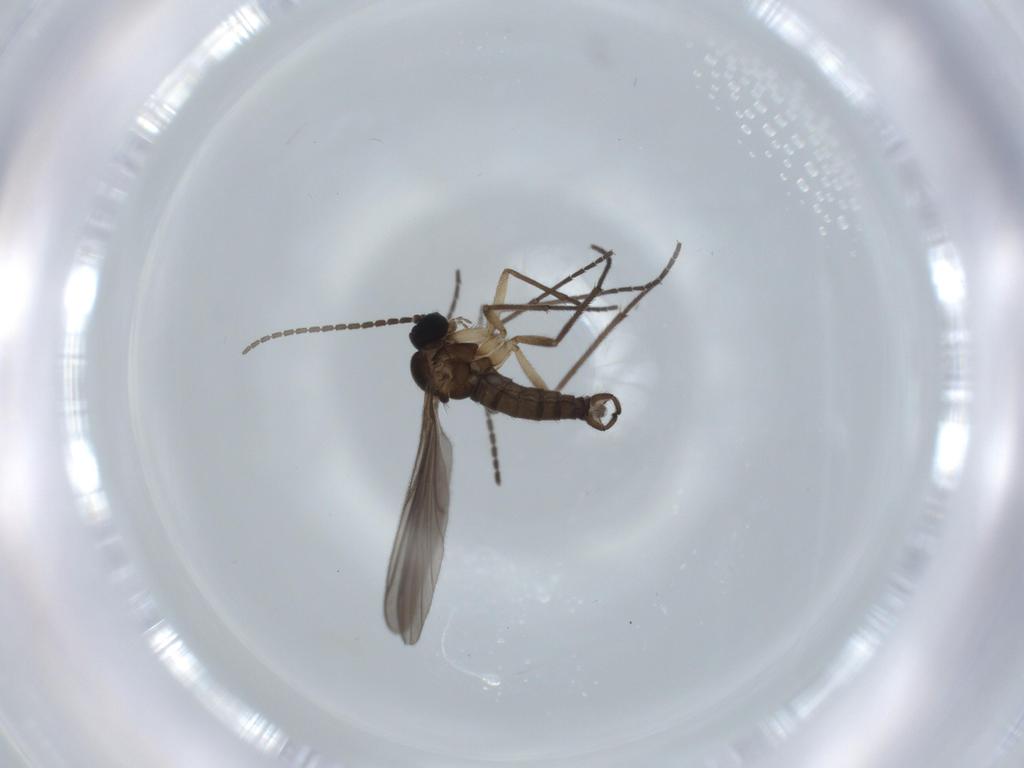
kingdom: Animalia
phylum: Arthropoda
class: Insecta
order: Diptera
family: Sciaridae
